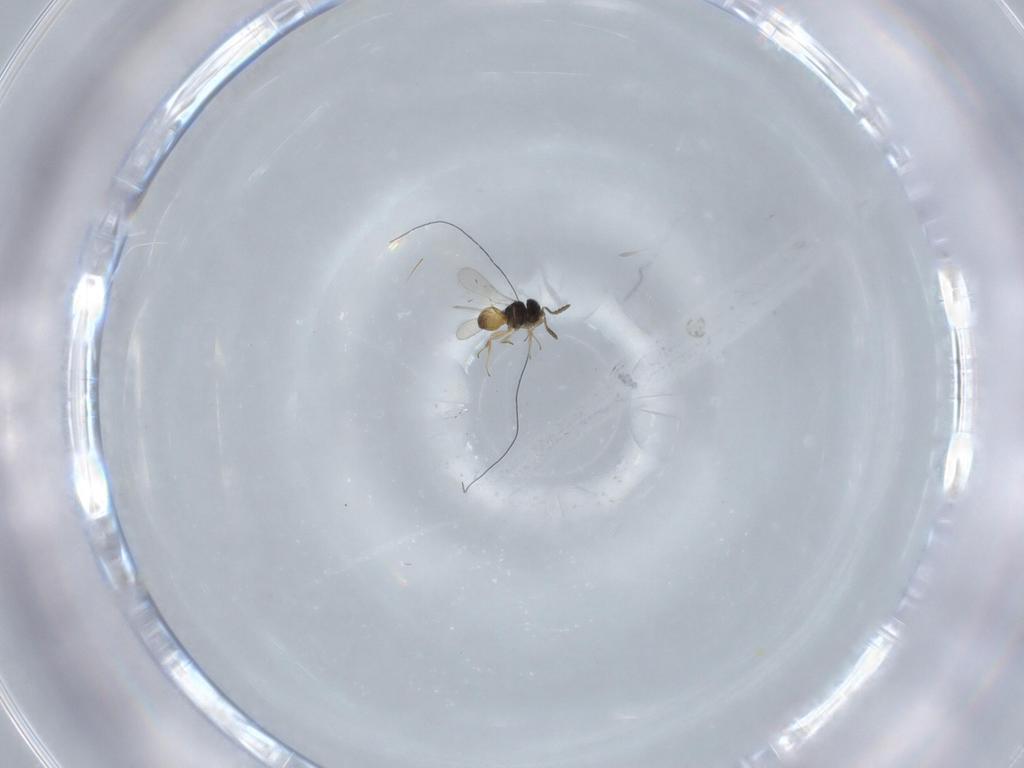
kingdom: Animalia
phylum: Arthropoda
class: Insecta
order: Hymenoptera
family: Scelionidae
